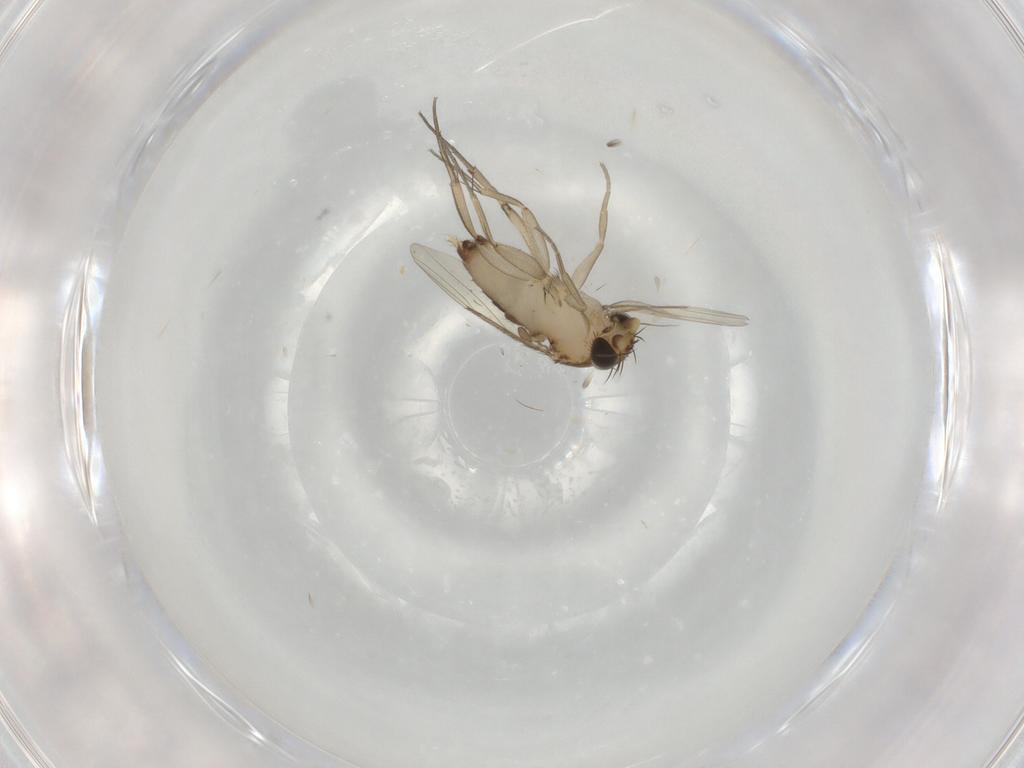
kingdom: Animalia
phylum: Arthropoda
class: Insecta
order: Diptera
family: Phoridae
